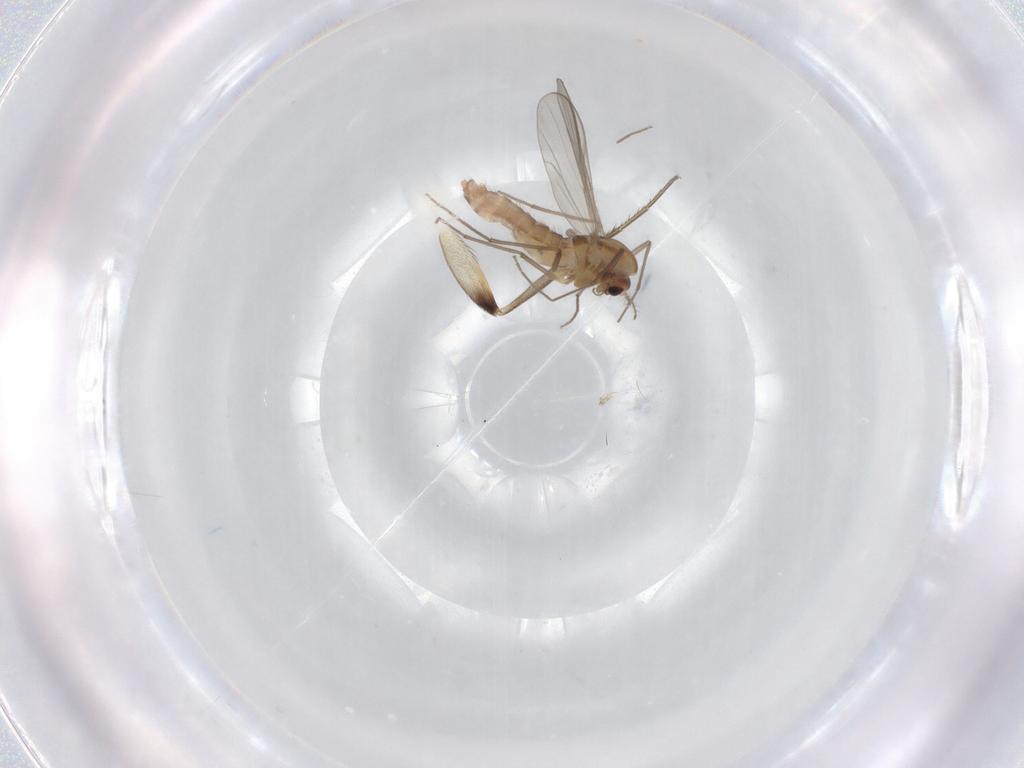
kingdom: Animalia
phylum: Arthropoda
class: Insecta
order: Diptera
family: Chironomidae
